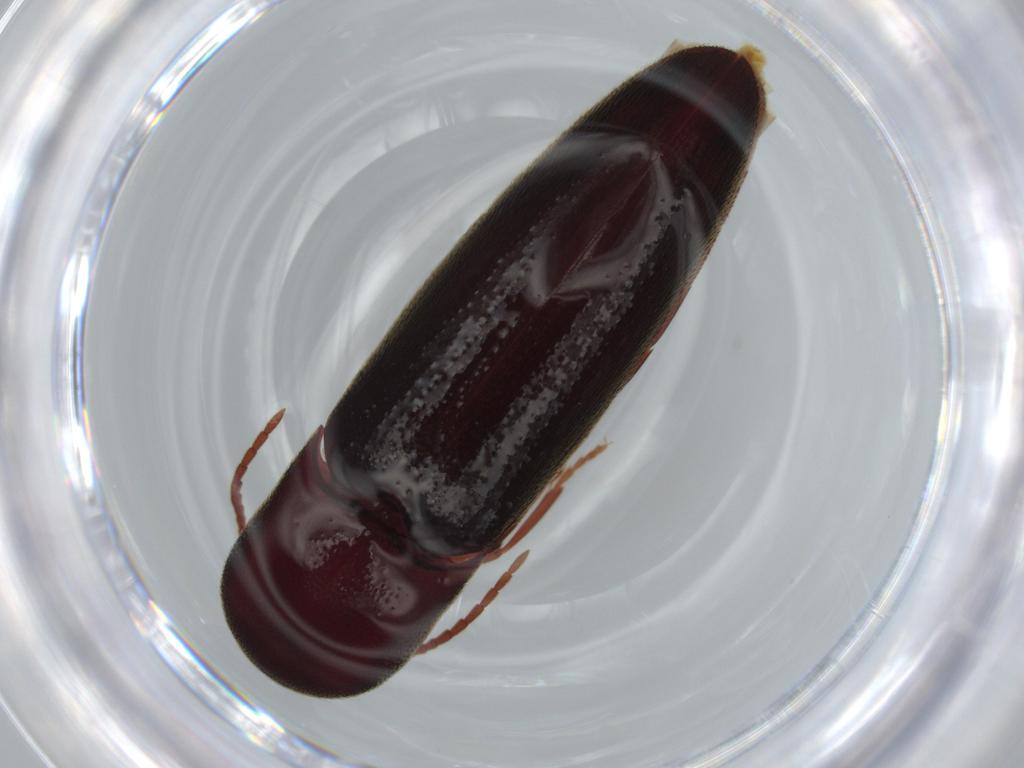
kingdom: Animalia
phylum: Arthropoda
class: Insecta
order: Coleoptera
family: Eucnemidae
